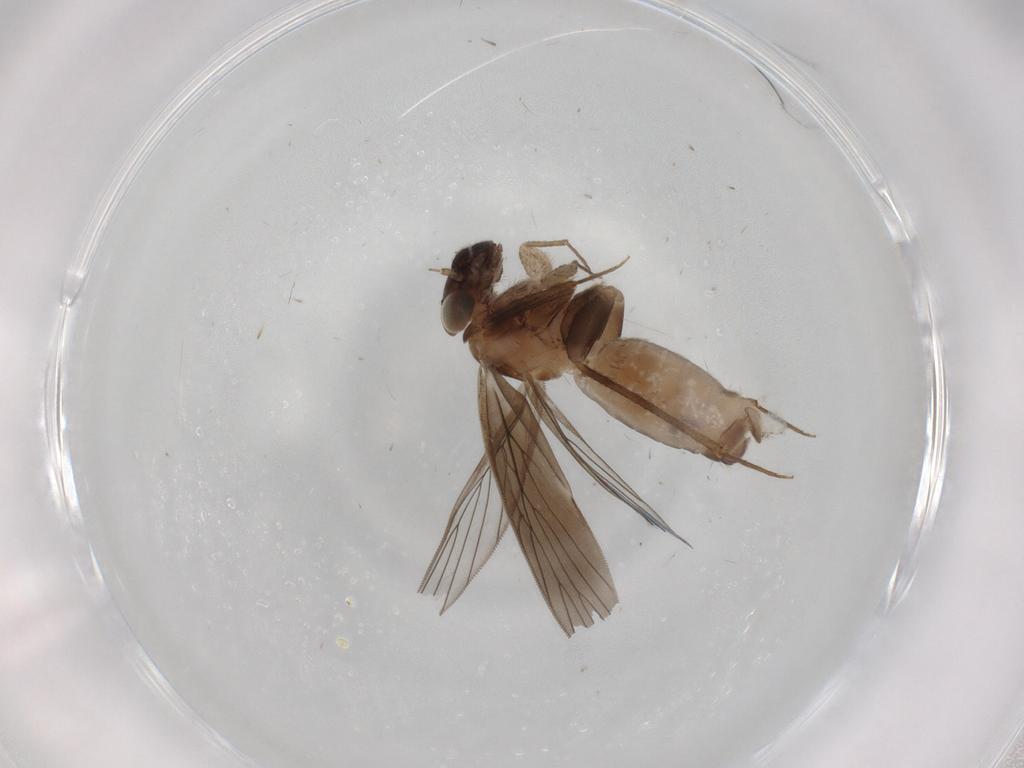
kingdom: Animalia
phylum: Arthropoda
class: Insecta
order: Psocodea
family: Lepidopsocidae
